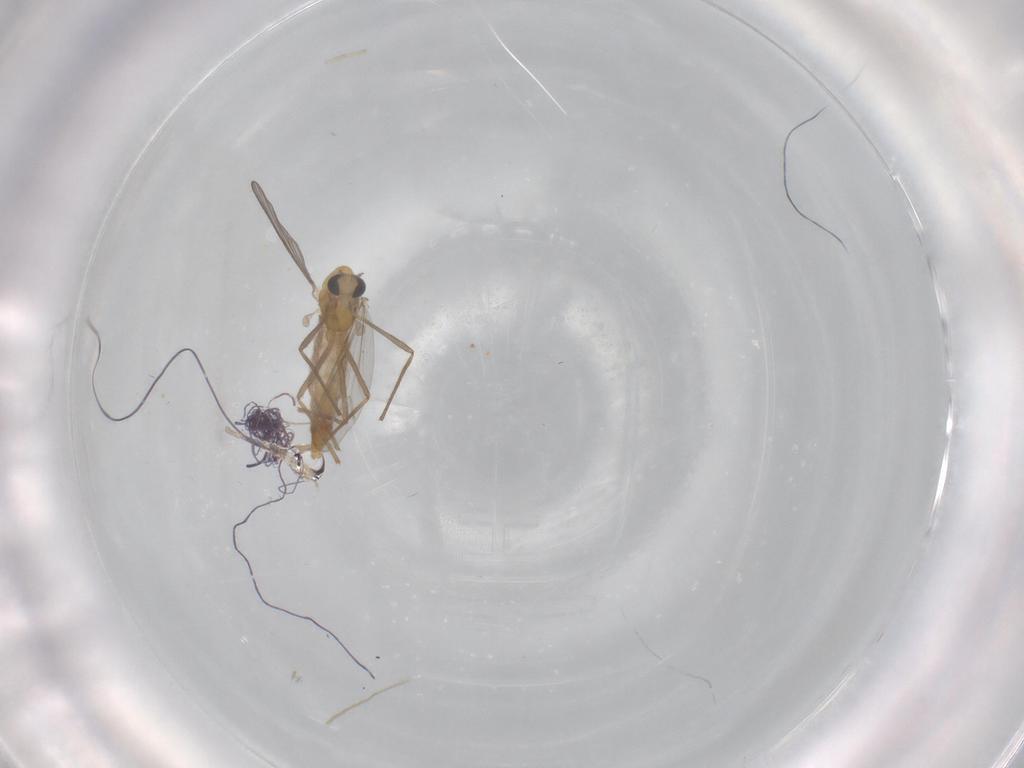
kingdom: Animalia
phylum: Arthropoda
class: Insecta
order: Diptera
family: Chironomidae
